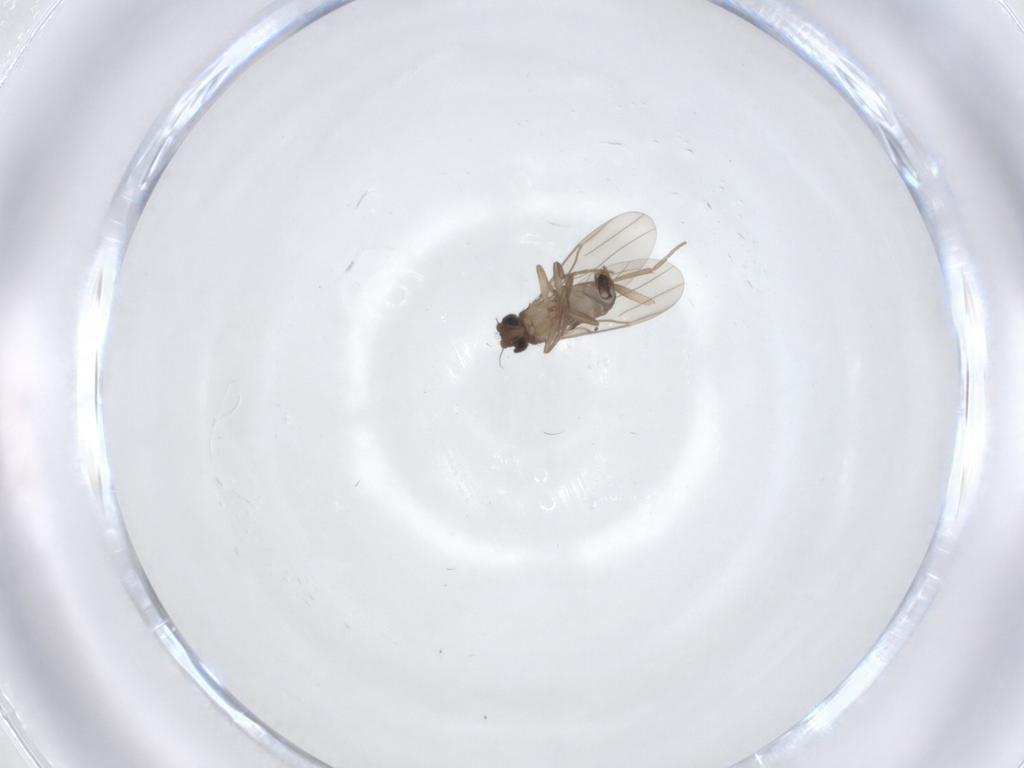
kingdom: Animalia
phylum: Arthropoda
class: Insecta
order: Diptera
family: Phoridae
